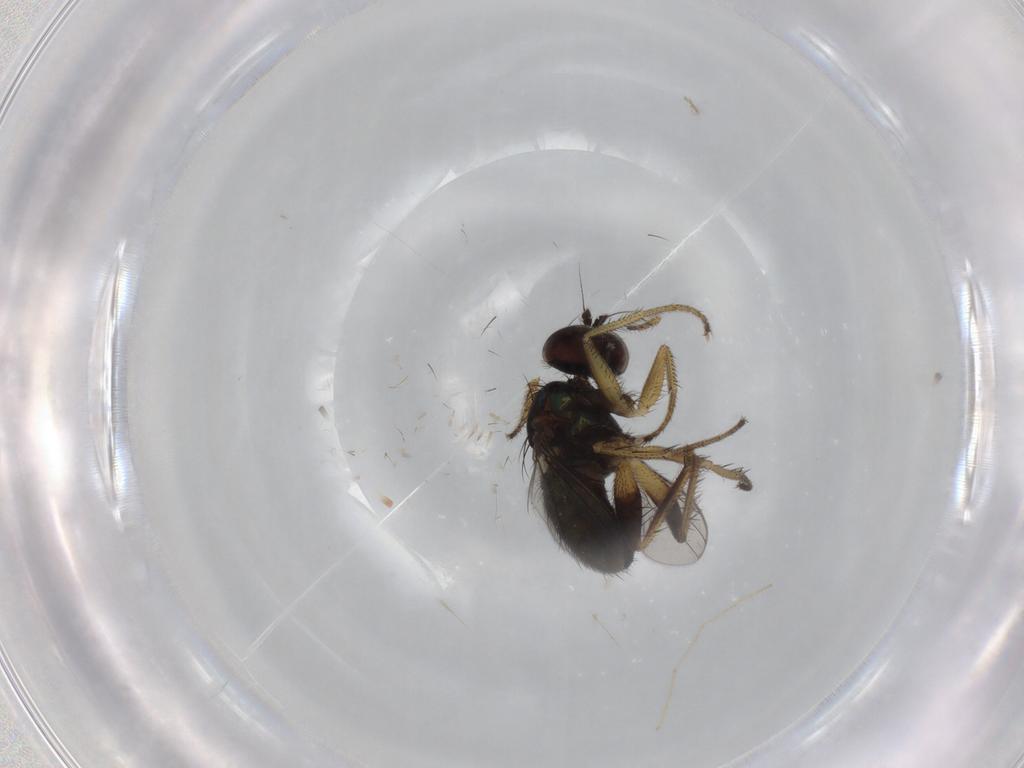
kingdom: Animalia
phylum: Arthropoda
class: Insecta
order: Diptera
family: Dolichopodidae
